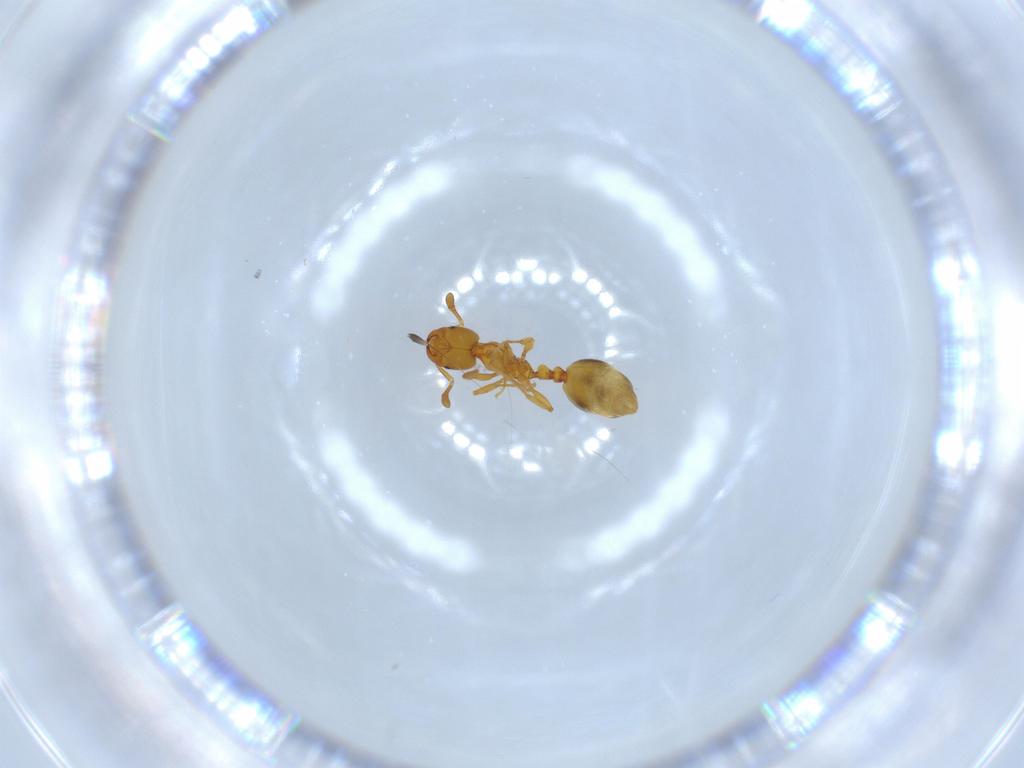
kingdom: Animalia
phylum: Arthropoda
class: Insecta
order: Hymenoptera
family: Formicidae
